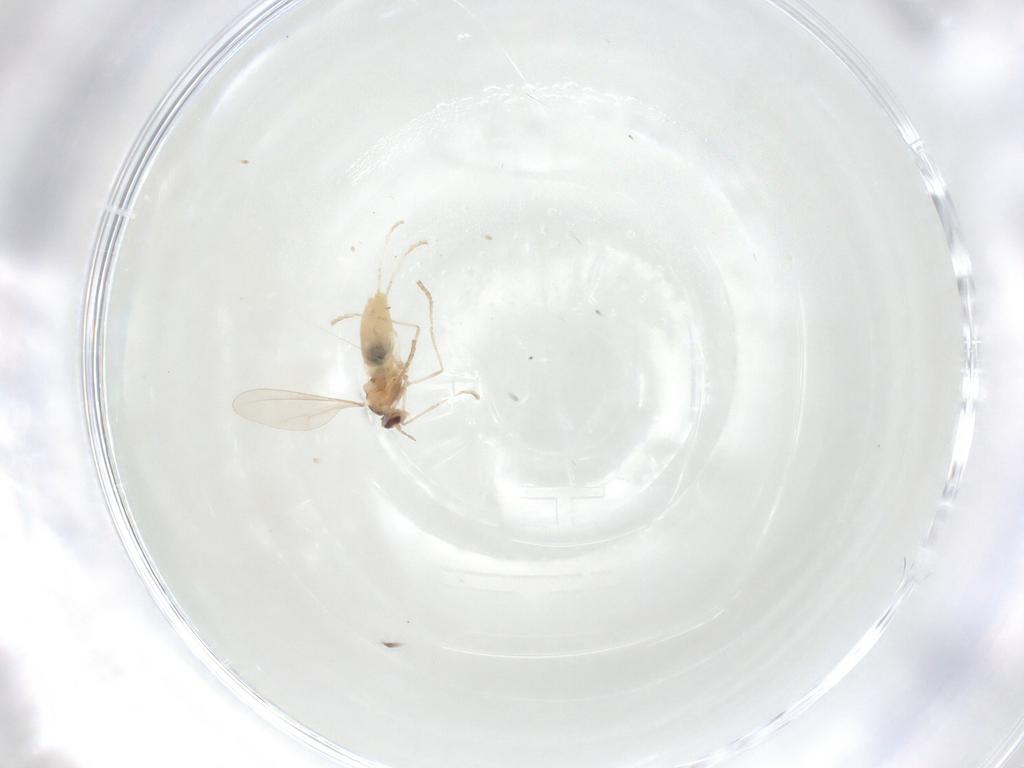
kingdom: Animalia
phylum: Arthropoda
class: Insecta
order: Diptera
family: Cecidomyiidae
